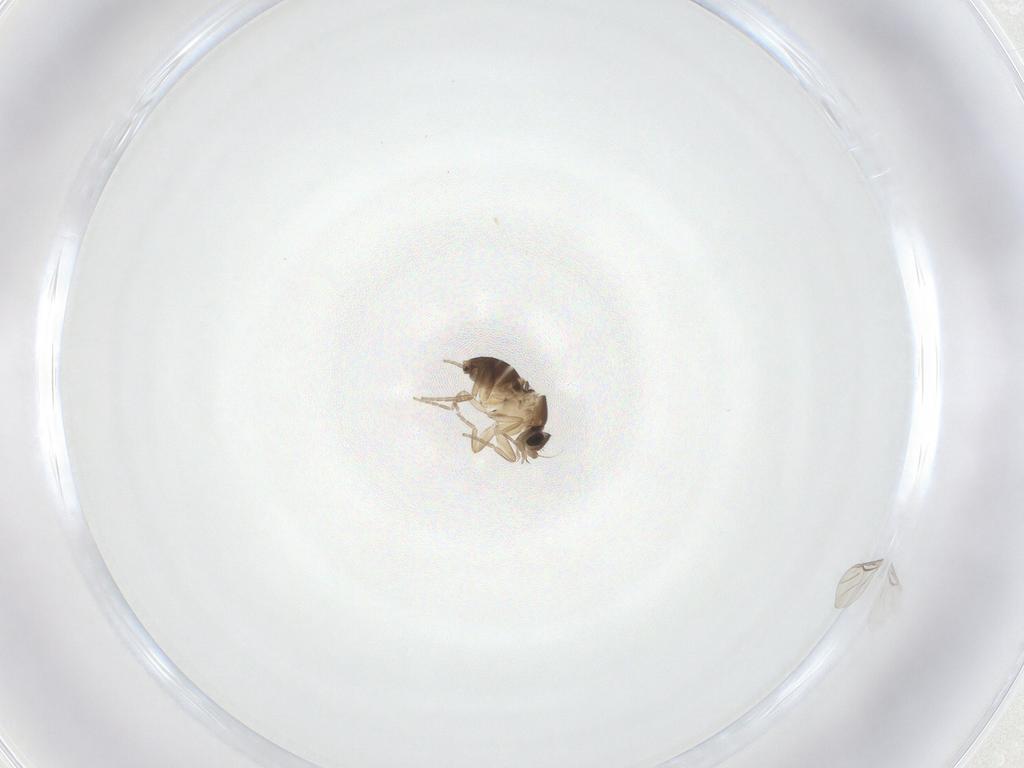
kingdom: Animalia
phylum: Arthropoda
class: Insecta
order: Diptera
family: Phoridae
